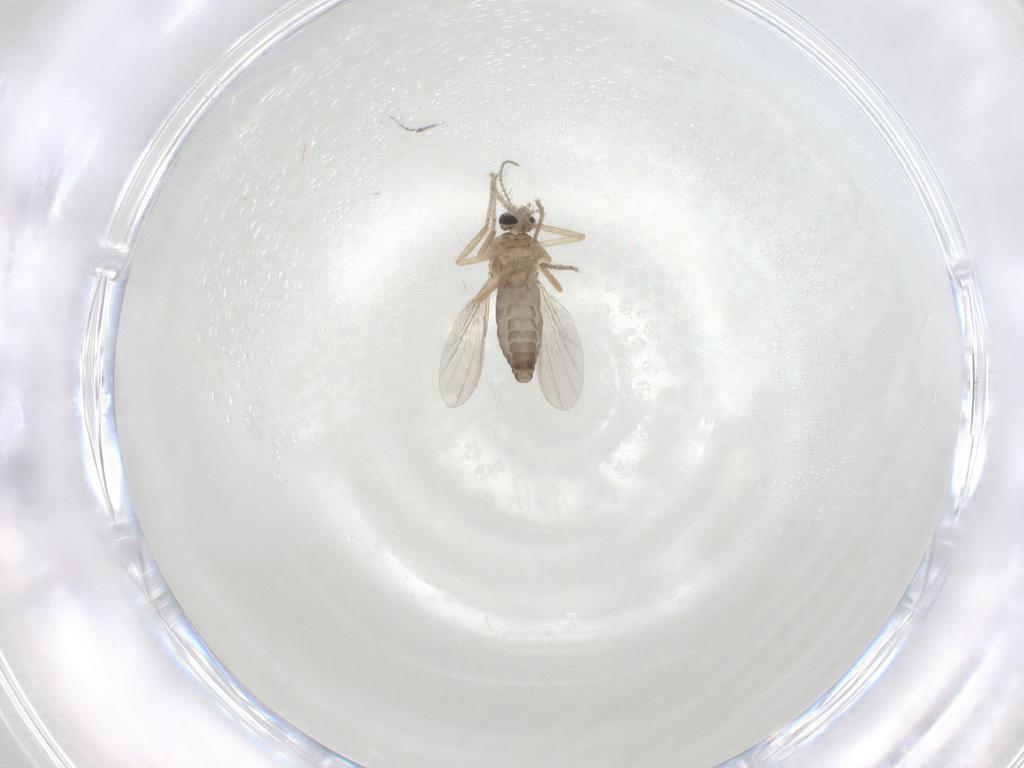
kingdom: Animalia
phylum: Arthropoda
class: Insecta
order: Diptera
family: Ceratopogonidae
